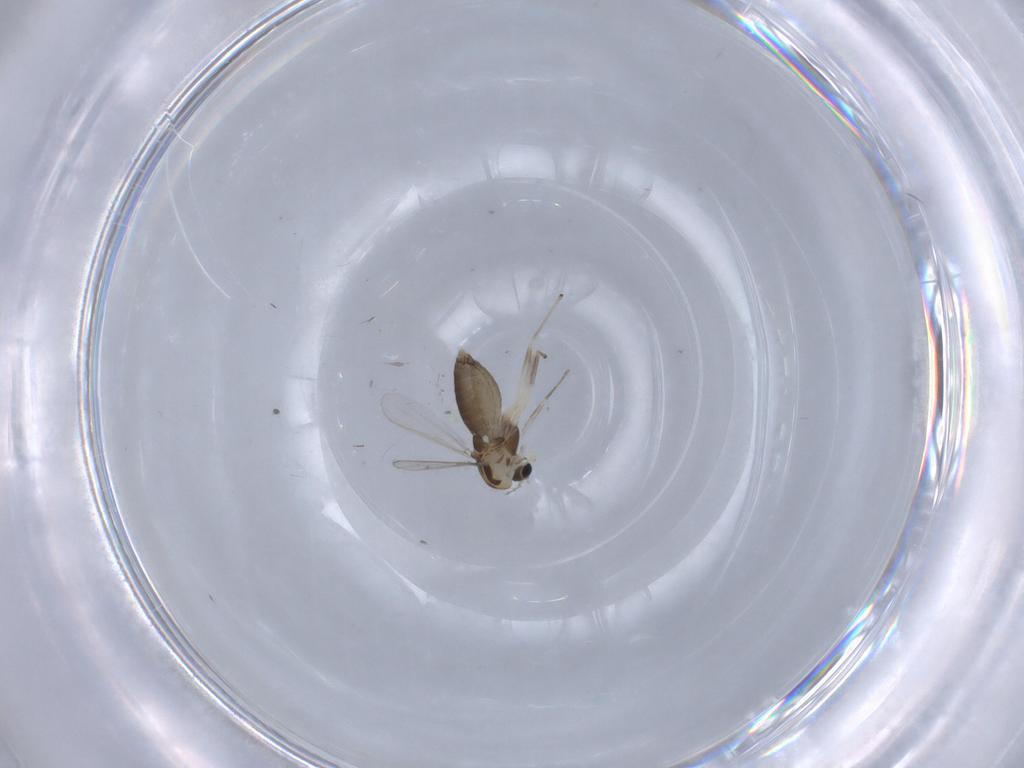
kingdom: Animalia
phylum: Arthropoda
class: Insecta
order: Diptera
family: Chironomidae
